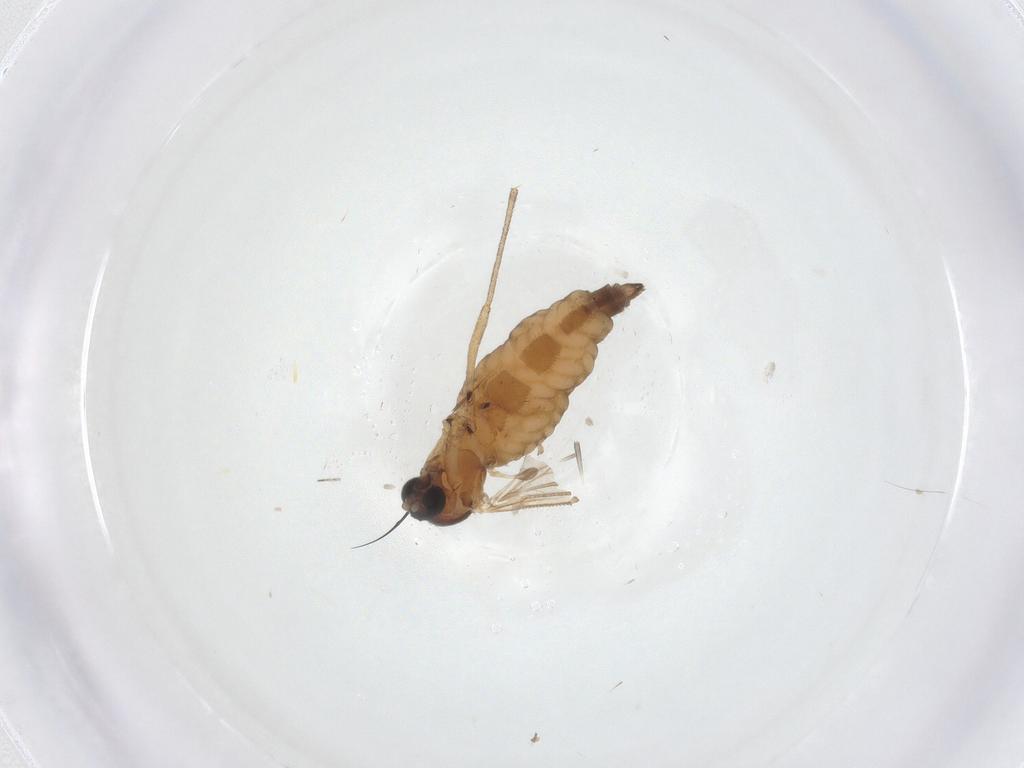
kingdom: Animalia
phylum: Arthropoda
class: Insecta
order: Diptera
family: Sciaridae
